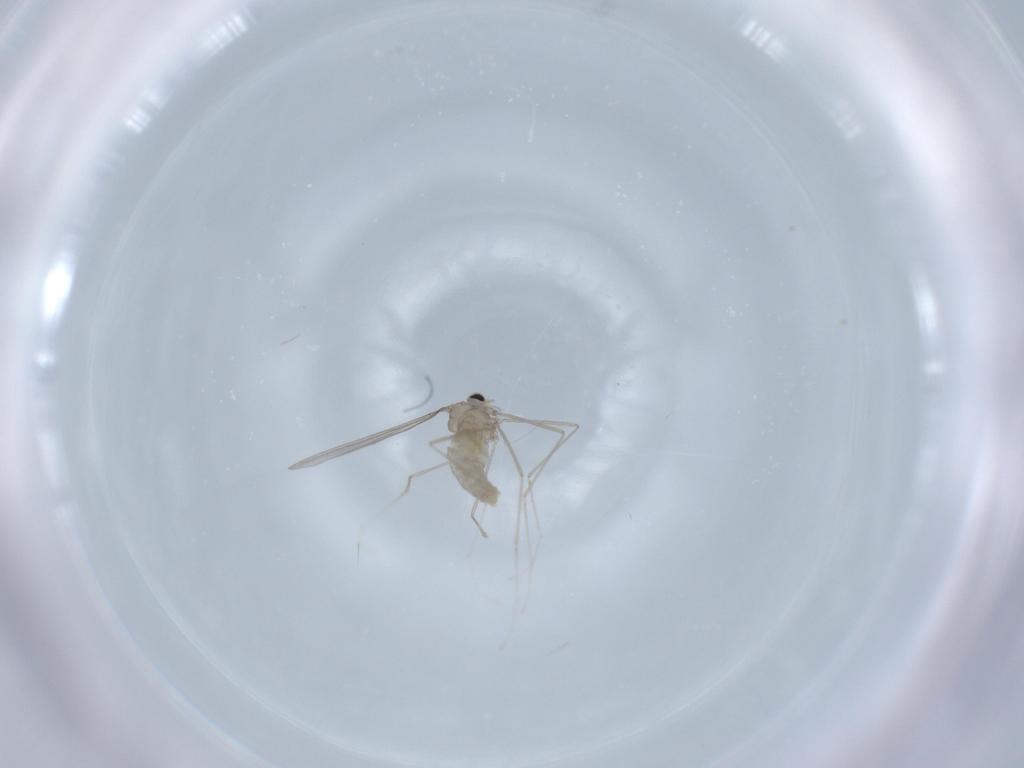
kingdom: Animalia
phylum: Arthropoda
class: Insecta
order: Diptera
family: Cecidomyiidae
